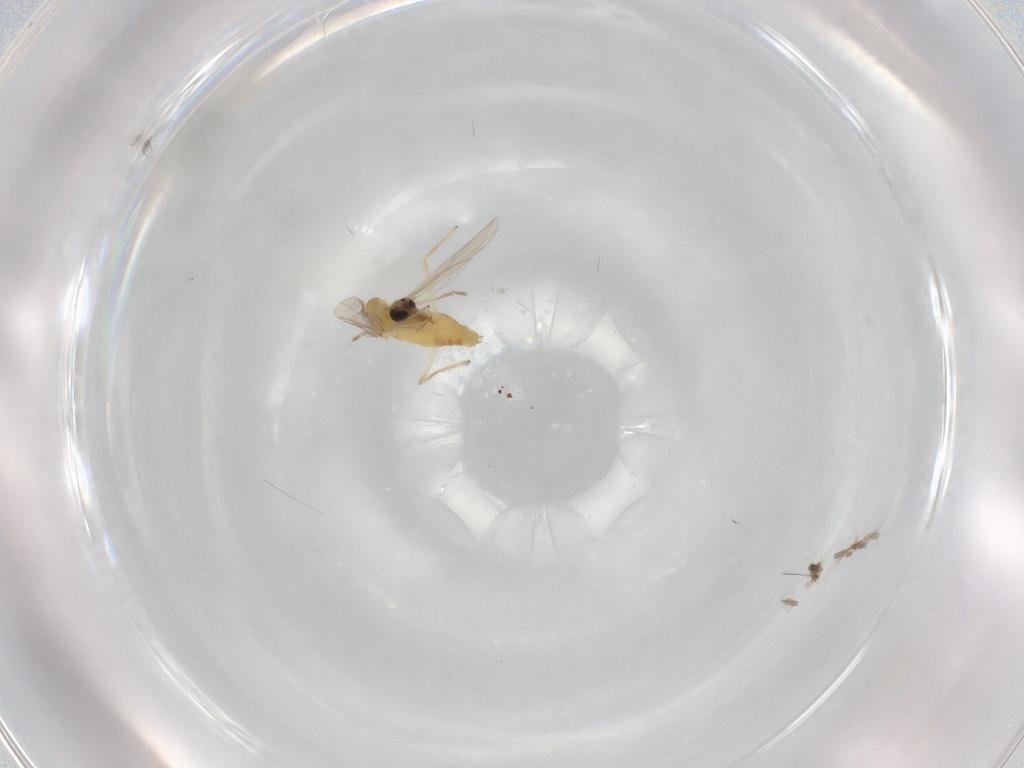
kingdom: Animalia
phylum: Arthropoda
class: Insecta
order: Diptera
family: Chironomidae
